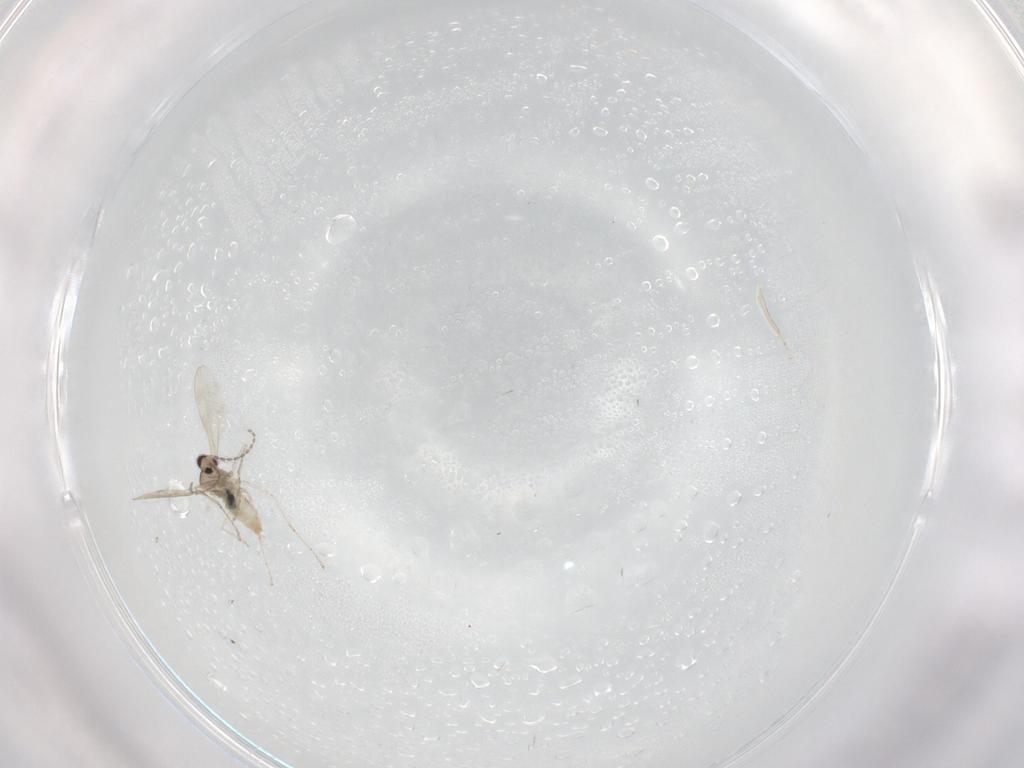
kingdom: Animalia
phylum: Arthropoda
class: Insecta
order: Diptera
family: Cecidomyiidae
